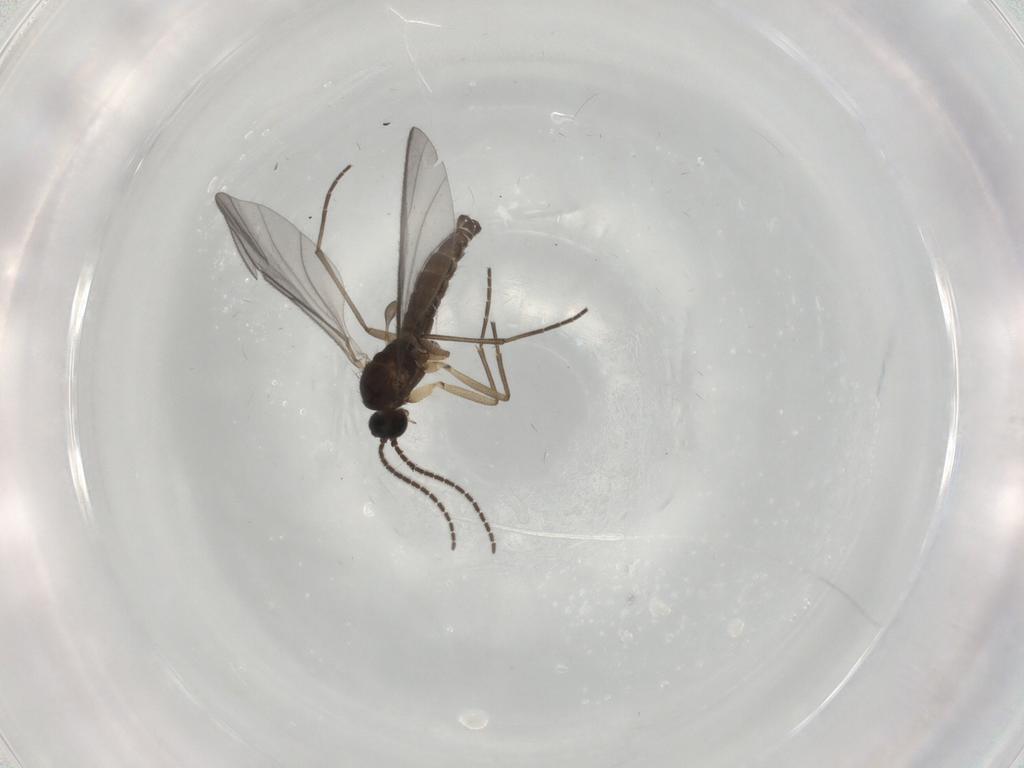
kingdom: Animalia
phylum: Arthropoda
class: Insecta
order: Diptera
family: Sciaridae
